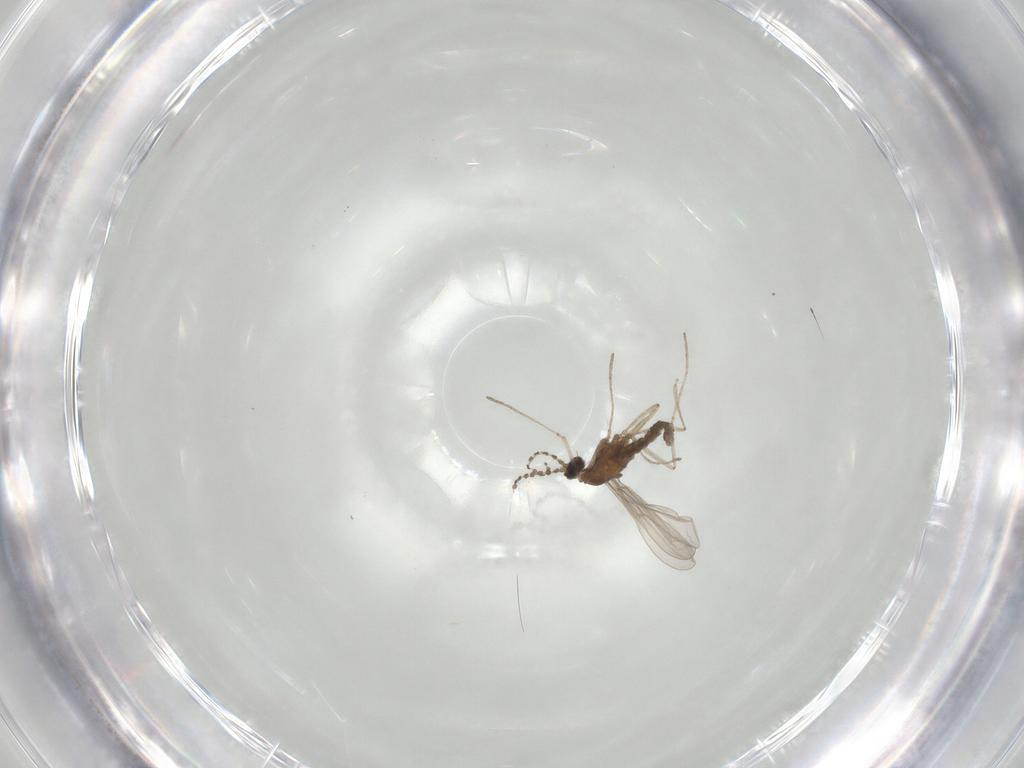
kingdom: Animalia
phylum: Arthropoda
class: Insecta
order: Diptera
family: Cecidomyiidae
